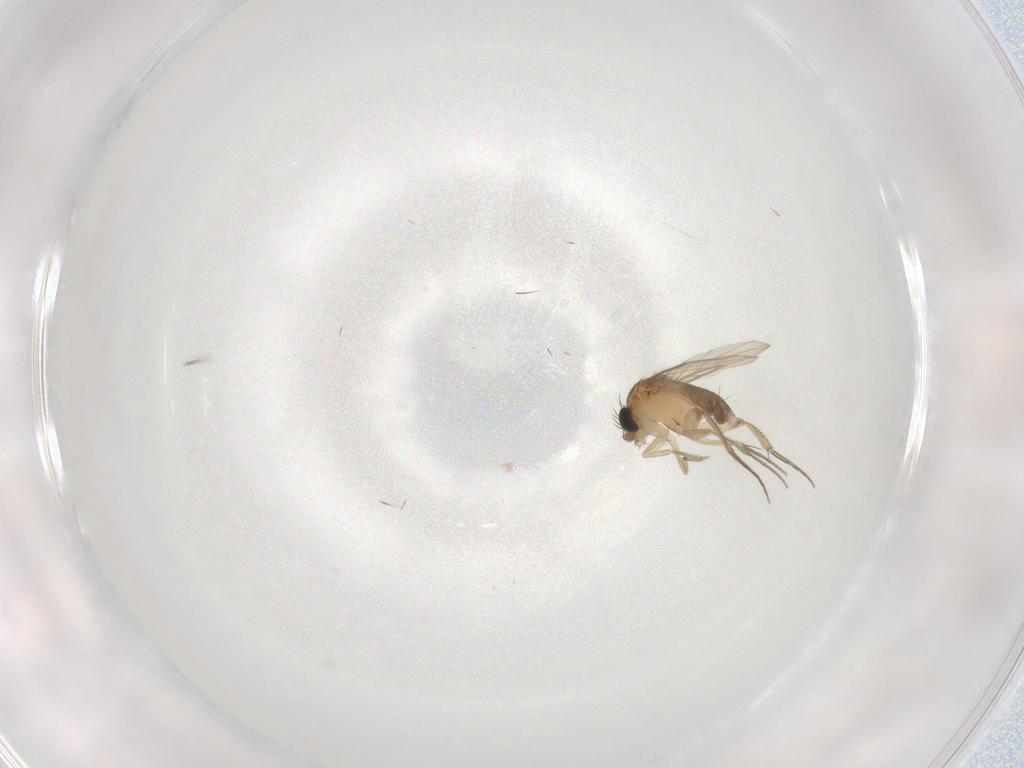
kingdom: Animalia
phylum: Arthropoda
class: Insecta
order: Diptera
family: Phoridae
